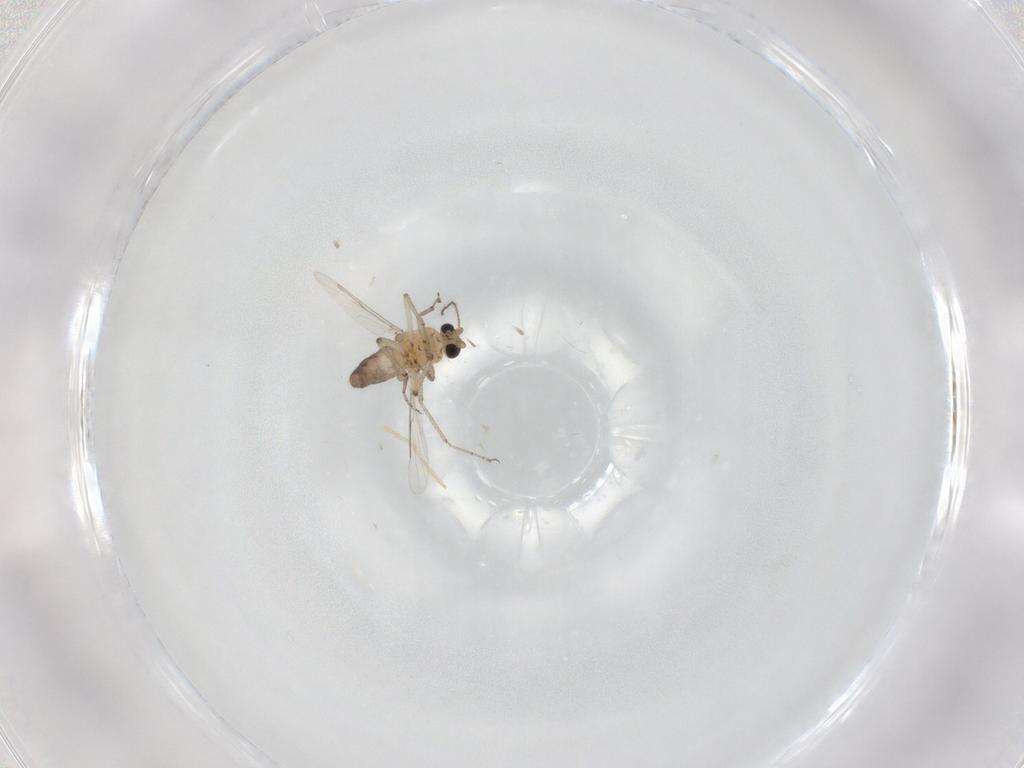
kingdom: Animalia
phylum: Arthropoda
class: Insecta
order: Diptera
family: Ceratopogonidae
